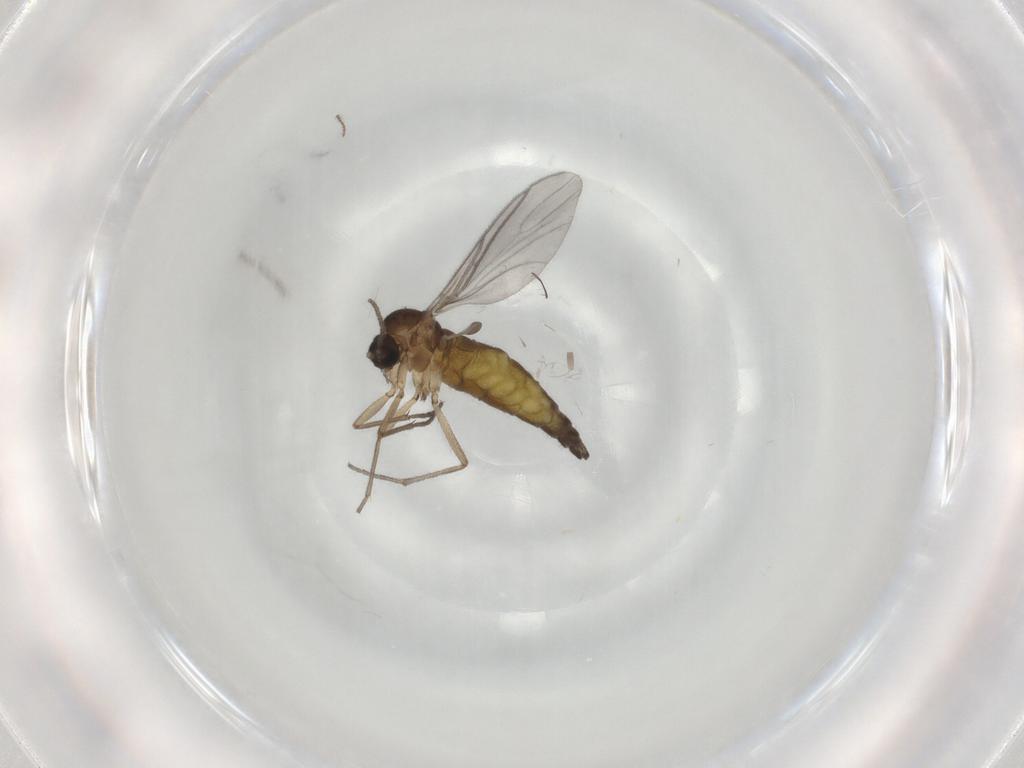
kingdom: Animalia
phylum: Arthropoda
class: Insecta
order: Diptera
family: Sciaridae
